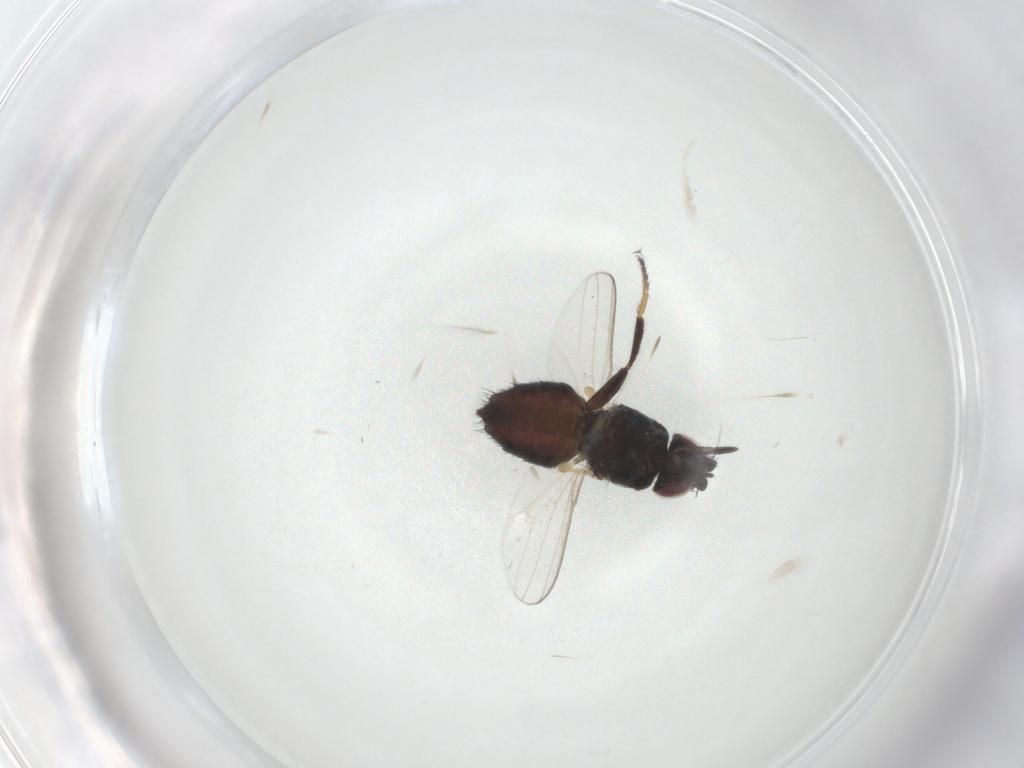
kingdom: Animalia
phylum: Arthropoda
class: Insecta
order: Diptera
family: Milichiidae
